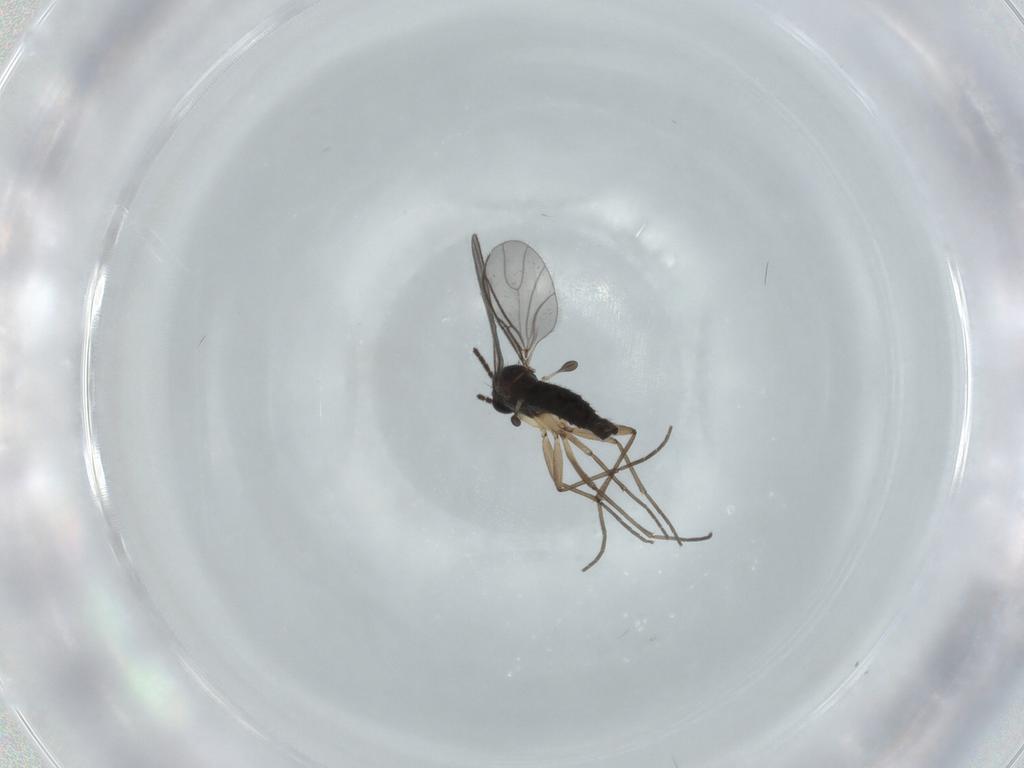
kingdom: Animalia
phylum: Arthropoda
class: Insecta
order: Diptera
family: Sciaridae
